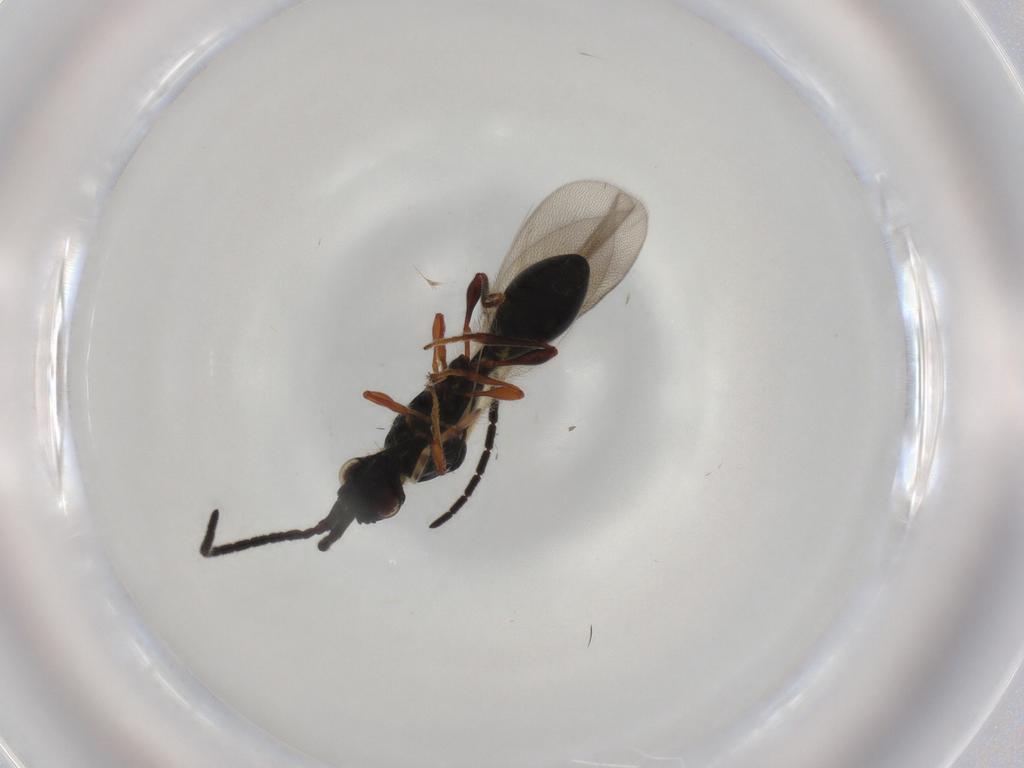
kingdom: Animalia
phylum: Arthropoda
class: Insecta
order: Hymenoptera
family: Diapriidae
